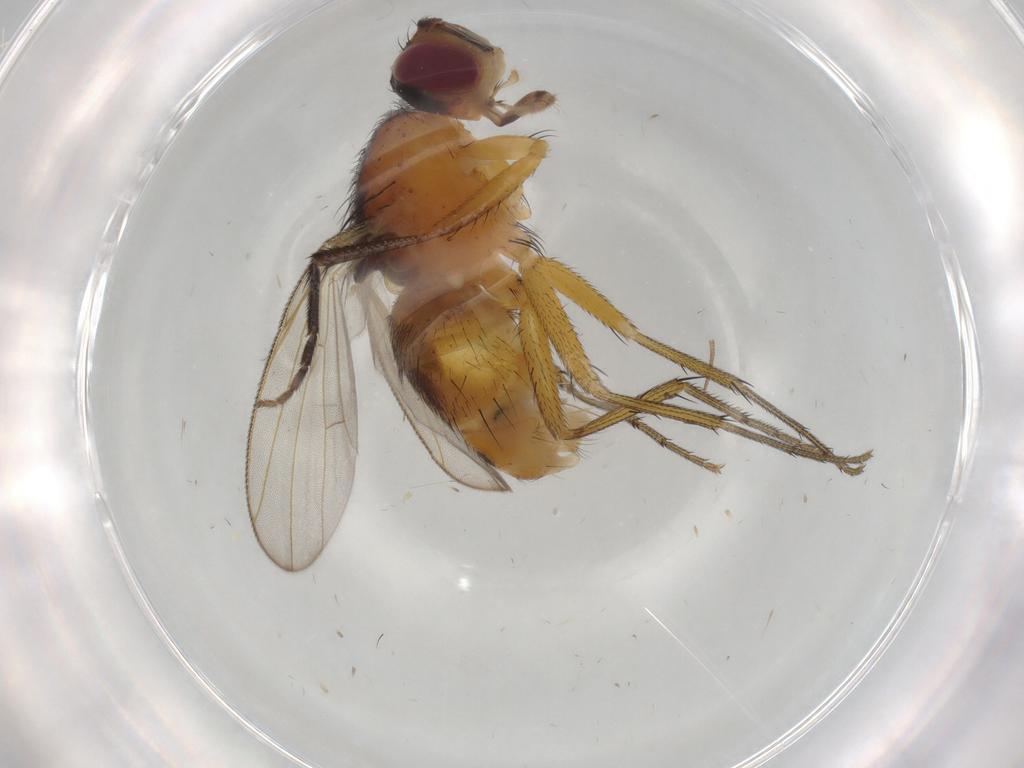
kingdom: Animalia
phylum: Arthropoda
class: Insecta
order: Diptera
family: Muscidae
